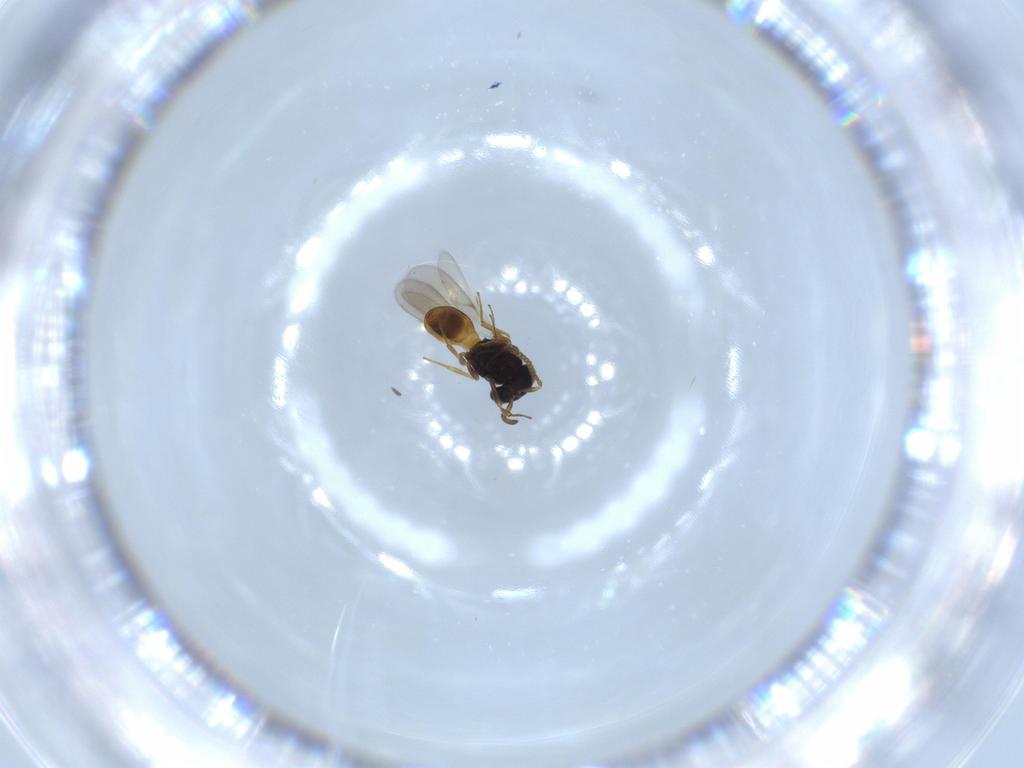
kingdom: Animalia
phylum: Arthropoda
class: Insecta
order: Hymenoptera
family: Scelionidae
